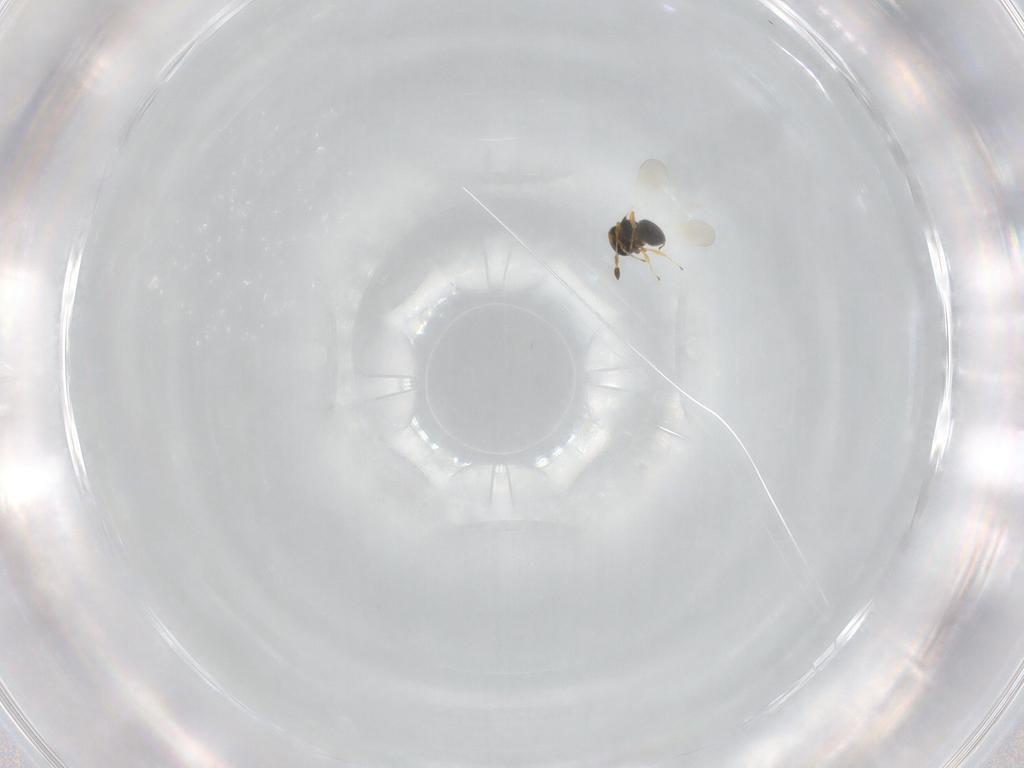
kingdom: Animalia
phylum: Arthropoda
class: Insecta
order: Hymenoptera
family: Platygastridae
